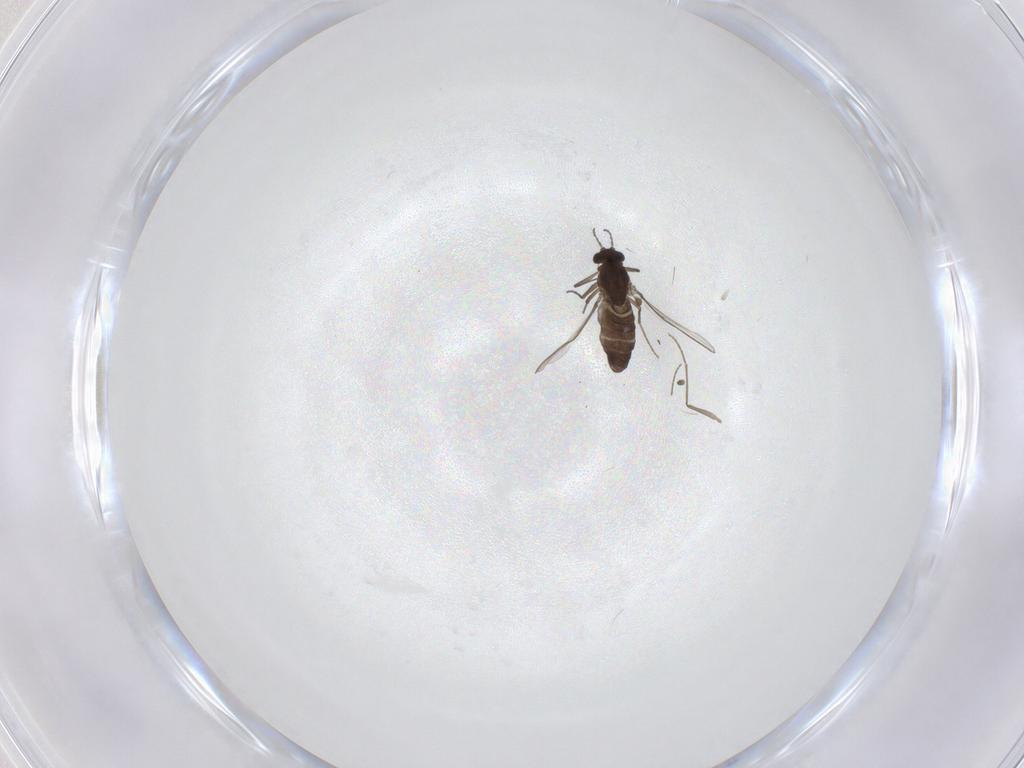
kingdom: Animalia
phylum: Arthropoda
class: Insecta
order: Diptera
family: Chironomidae
